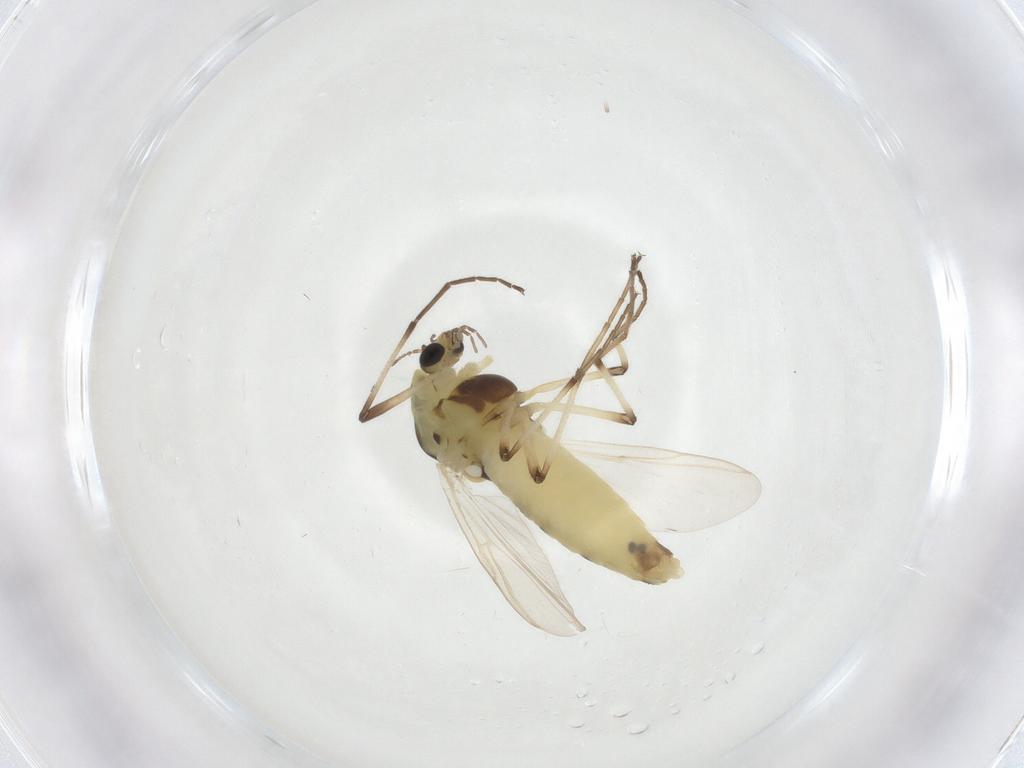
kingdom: Animalia
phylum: Arthropoda
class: Insecta
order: Diptera
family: Chironomidae
